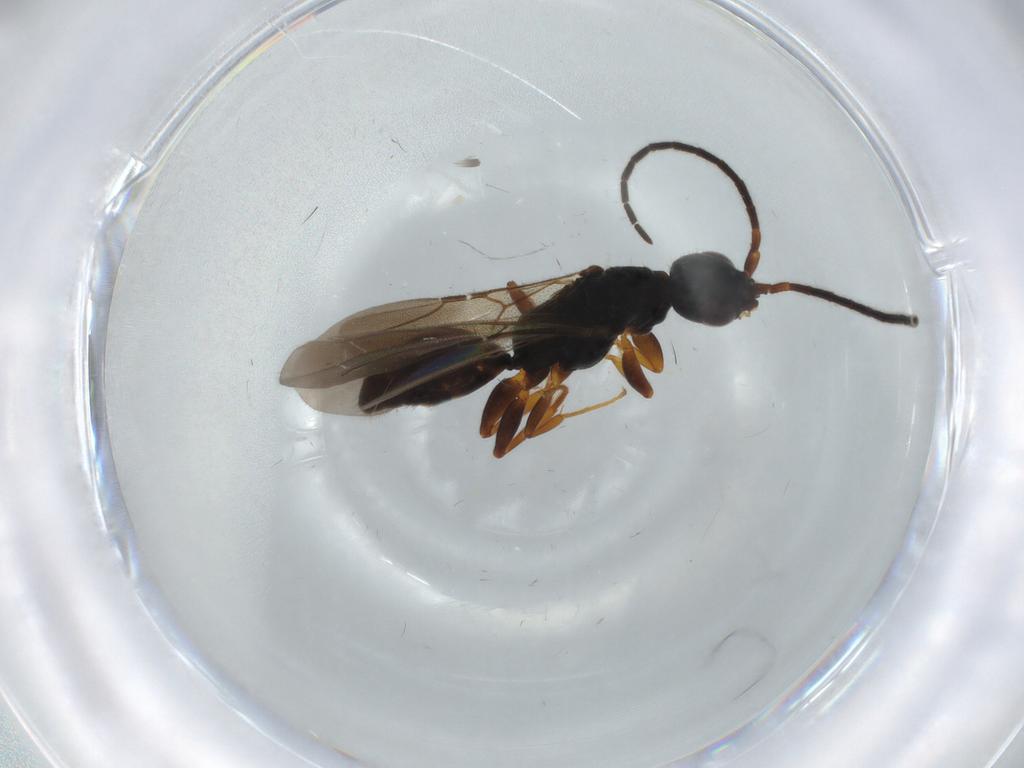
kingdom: Animalia
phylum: Arthropoda
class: Insecta
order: Hymenoptera
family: Bethylidae
